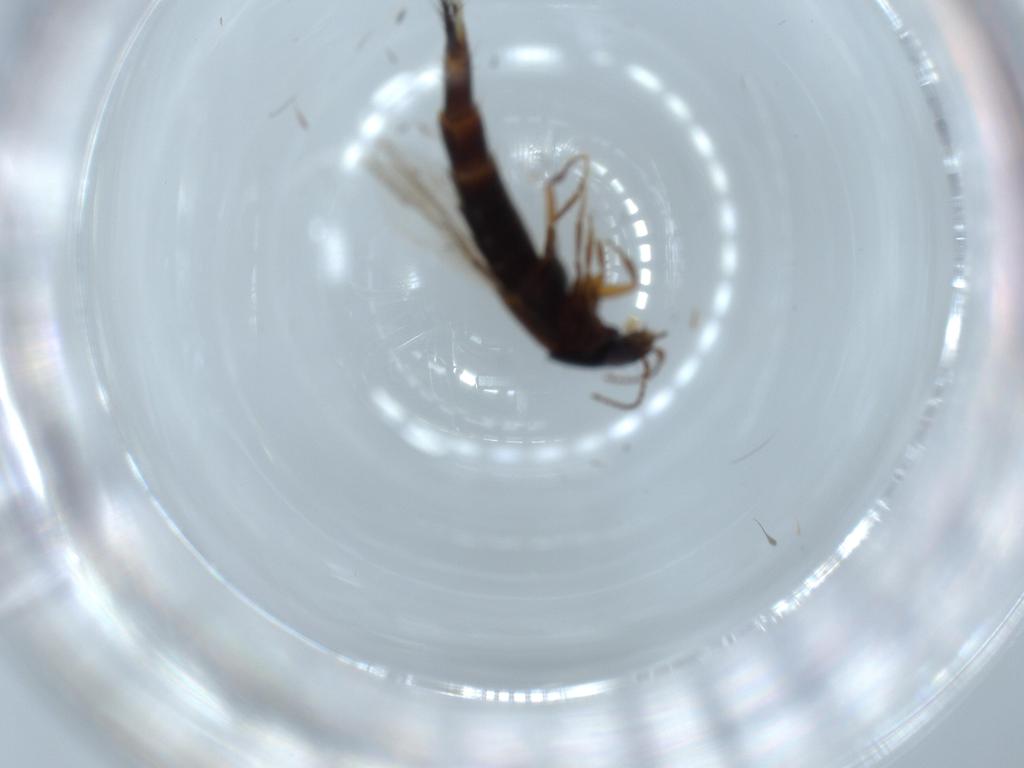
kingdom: Animalia
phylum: Arthropoda
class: Insecta
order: Coleoptera
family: Staphylinidae
